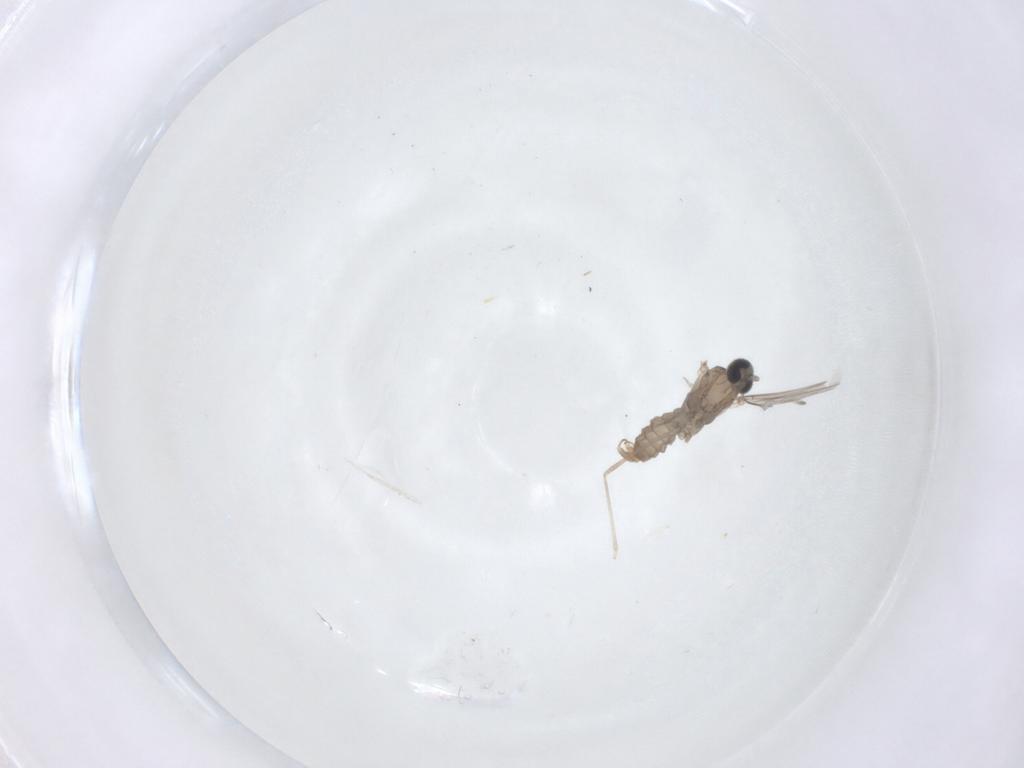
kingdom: Animalia
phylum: Arthropoda
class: Insecta
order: Diptera
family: Cecidomyiidae
